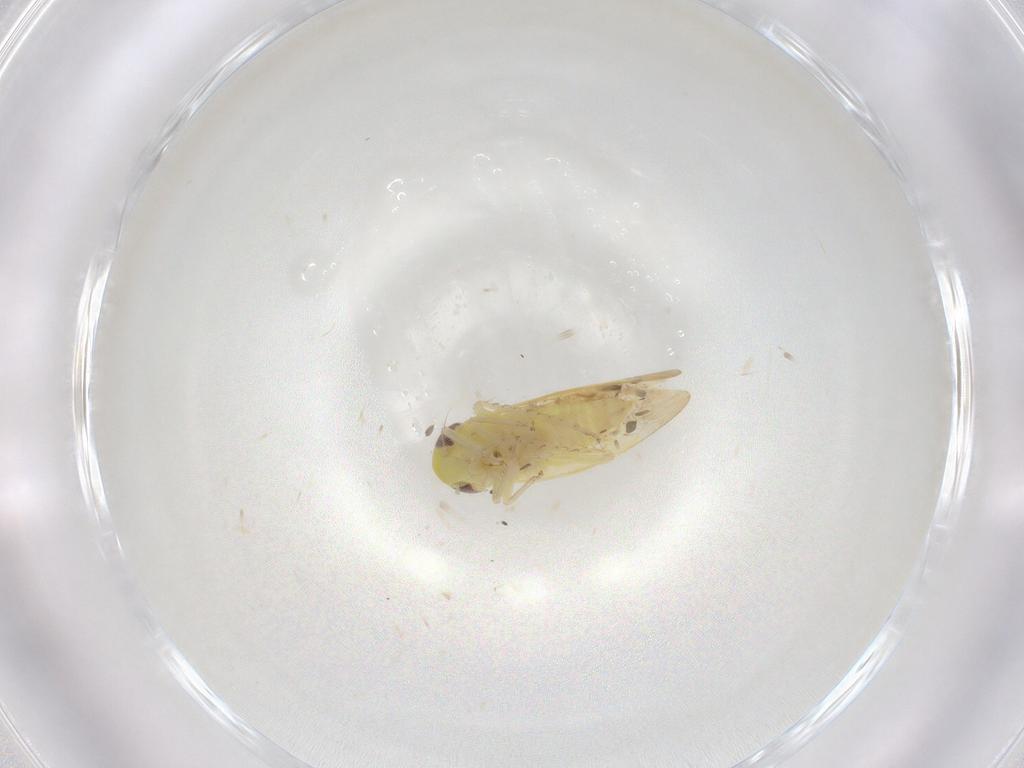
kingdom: Animalia
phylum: Arthropoda
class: Insecta
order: Hemiptera
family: Cicadellidae
